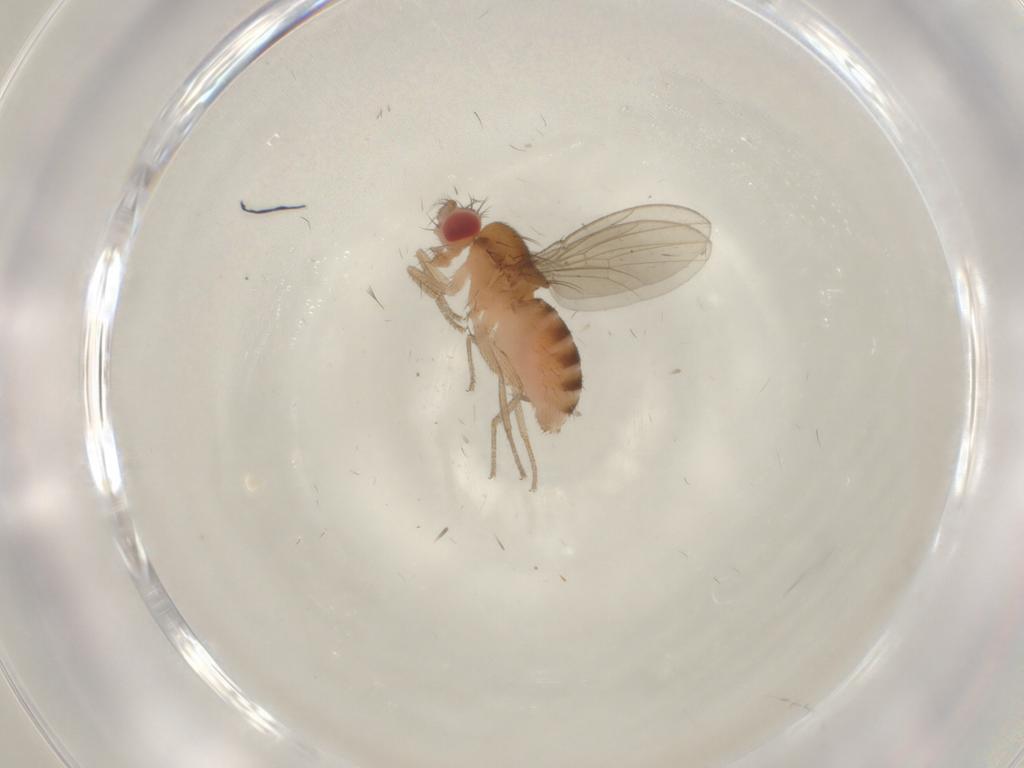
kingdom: Animalia
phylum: Arthropoda
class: Insecta
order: Diptera
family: Drosophilidae
